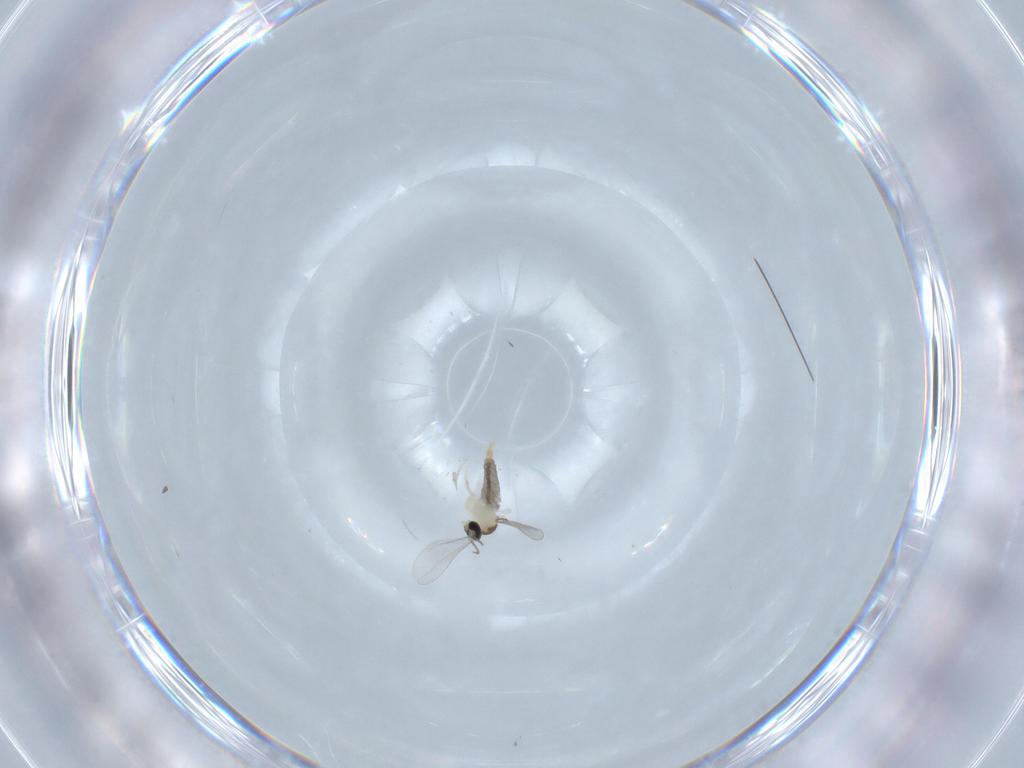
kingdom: Animalia
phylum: Arthropoda
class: Insecta
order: Diptera
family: Cecidomyiidae
